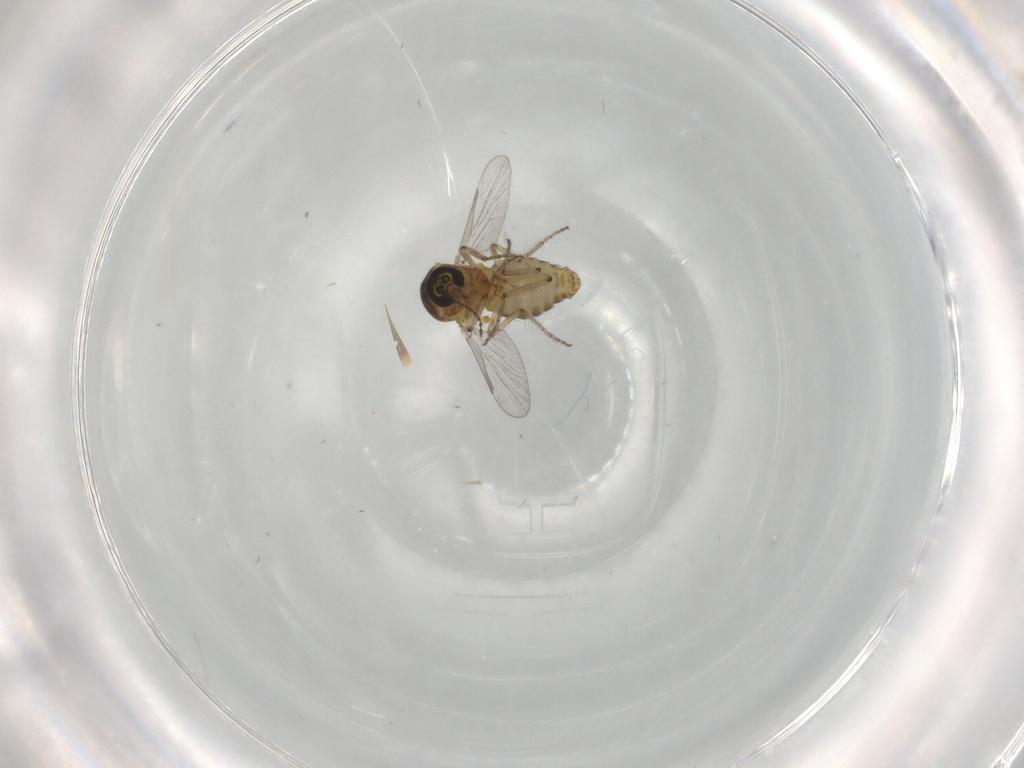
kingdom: Animalia
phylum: Arthropoda
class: Insecta
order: Diptera
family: Ceratopogonidae
